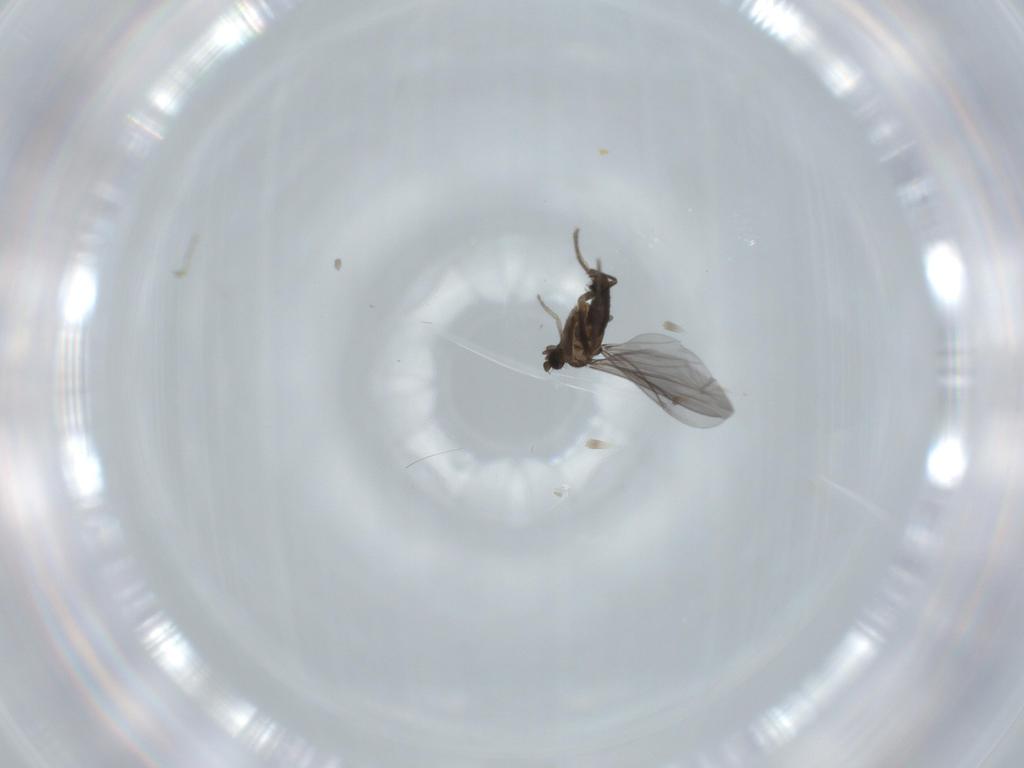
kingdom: Animalia
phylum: Arthropoda
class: Insecta
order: Diptera
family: Phoridae
